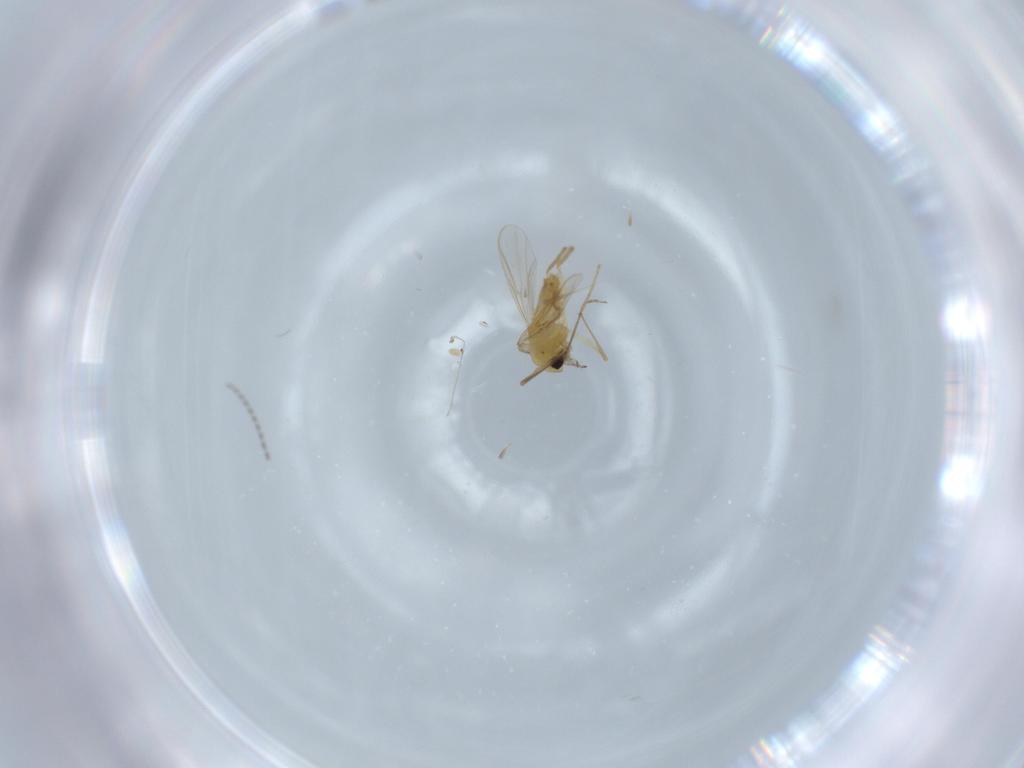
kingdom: Animalia
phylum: Arthropoda
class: Insecta
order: Diptera
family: Chironomidae
